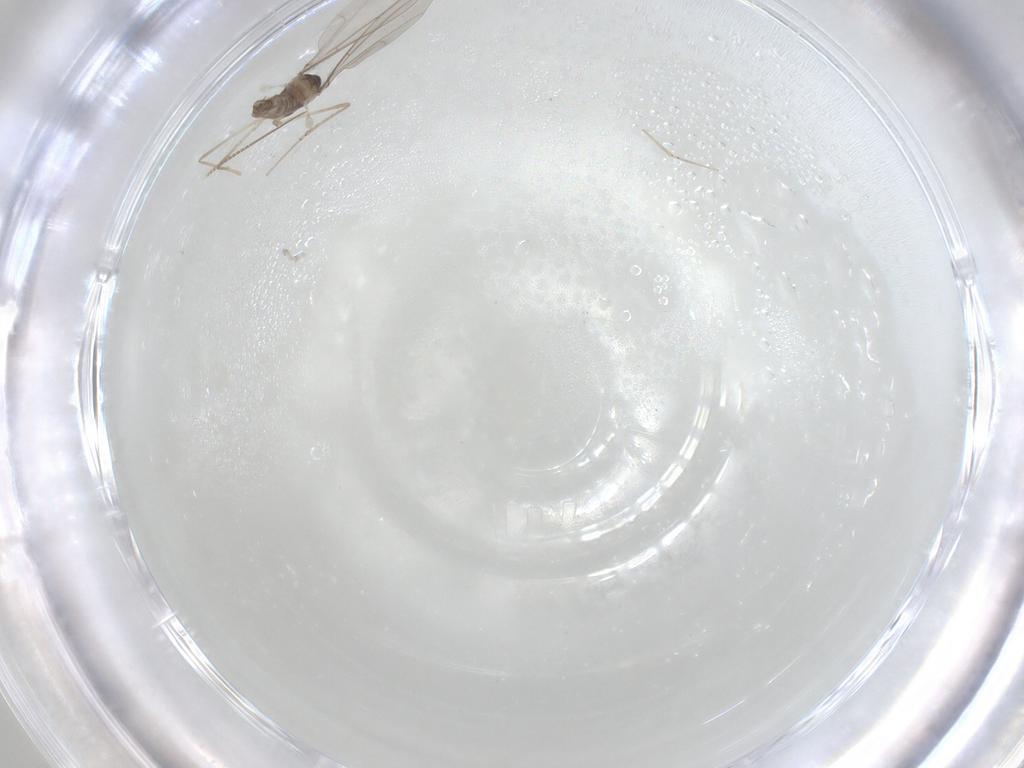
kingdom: Animalia
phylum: Arthropoda
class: Insecta
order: Diptera
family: Cecidomyiidae
